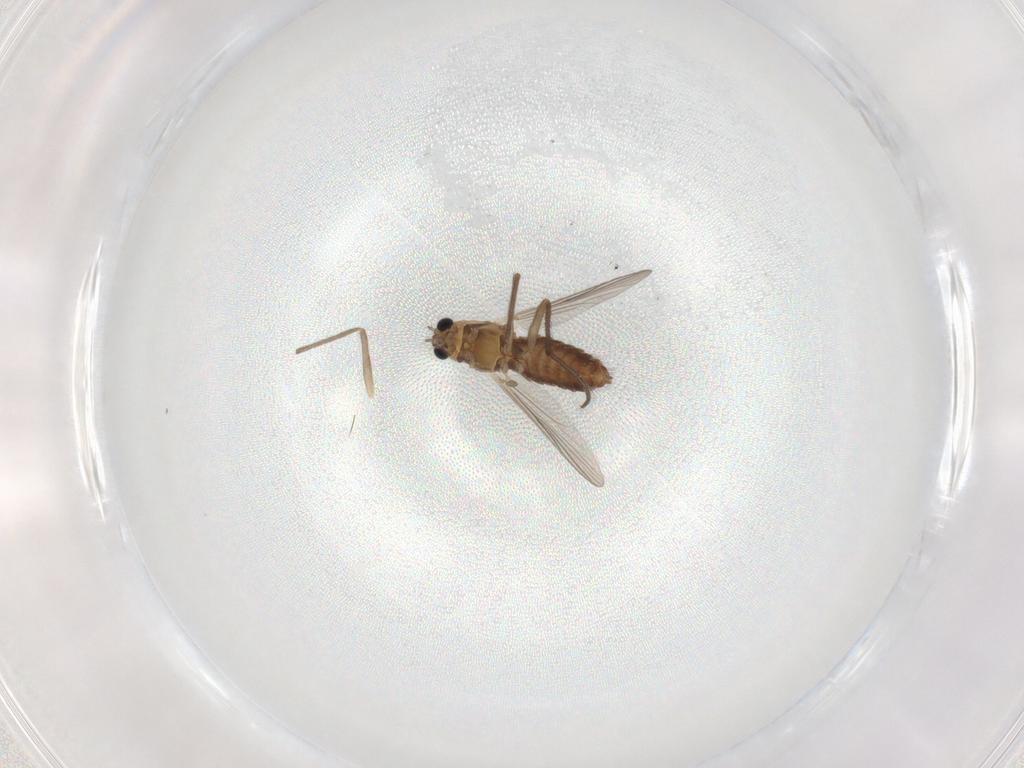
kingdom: Animalia
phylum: Arthropoda
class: Insecta
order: Diptera
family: Chironomidae
